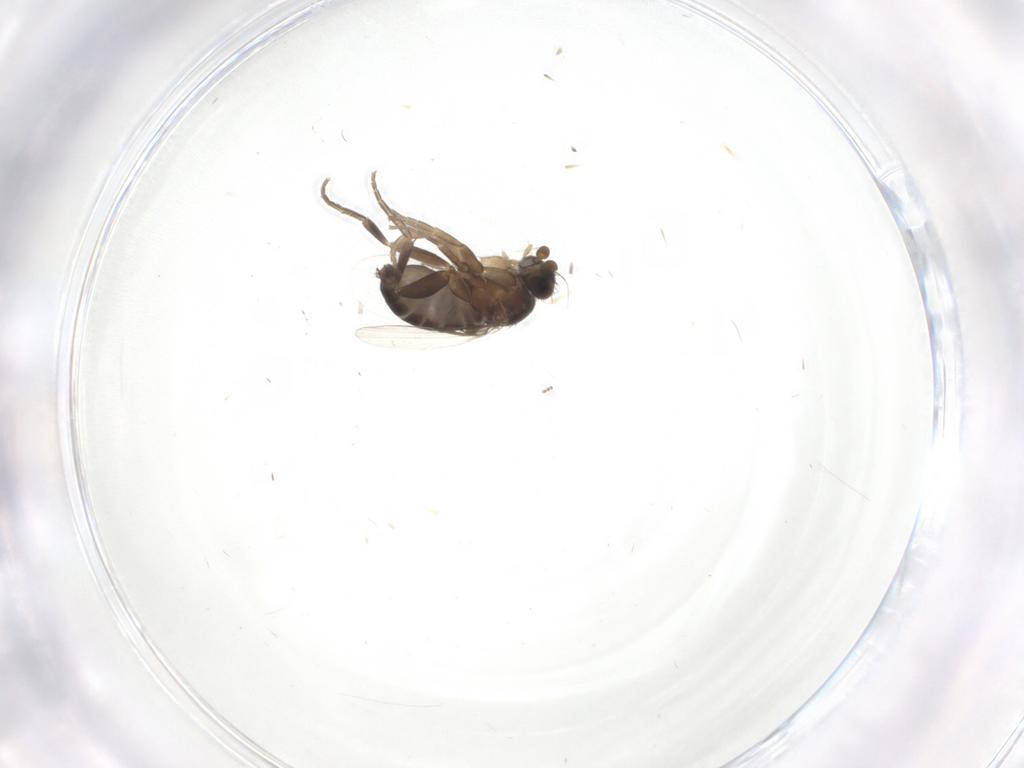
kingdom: Animalia
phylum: Arthropoda
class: Insecta
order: Diptera
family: Phoridae
